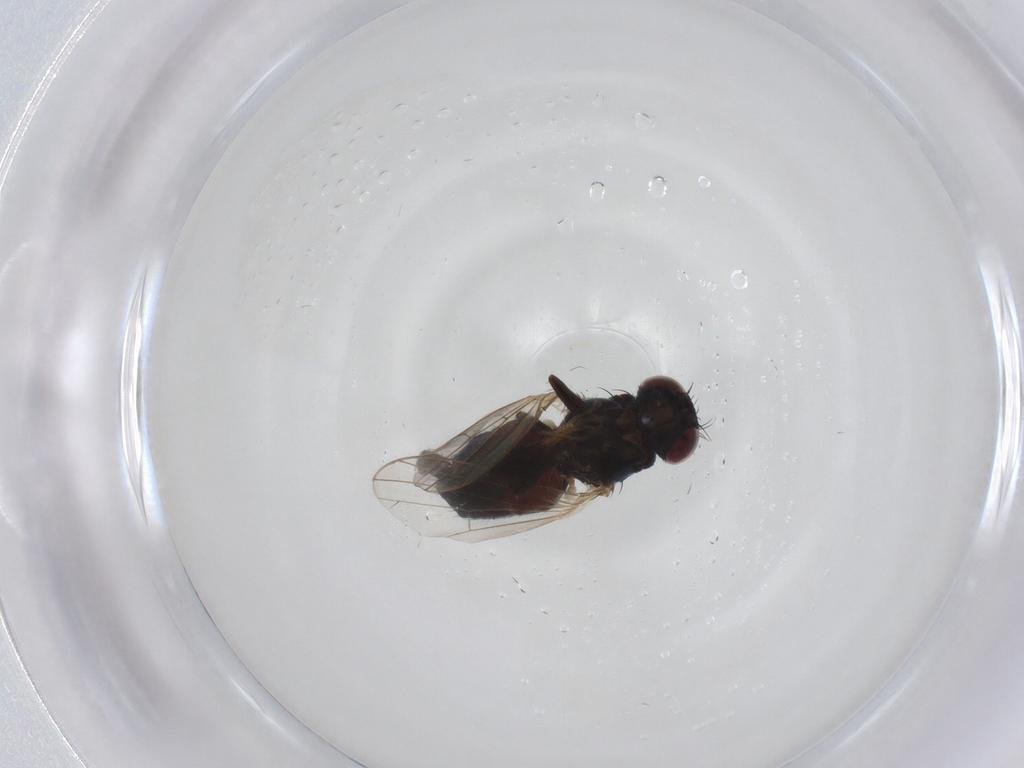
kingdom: Animalia
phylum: Arthropoda
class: Insecta
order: Diptera
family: Carnidae
